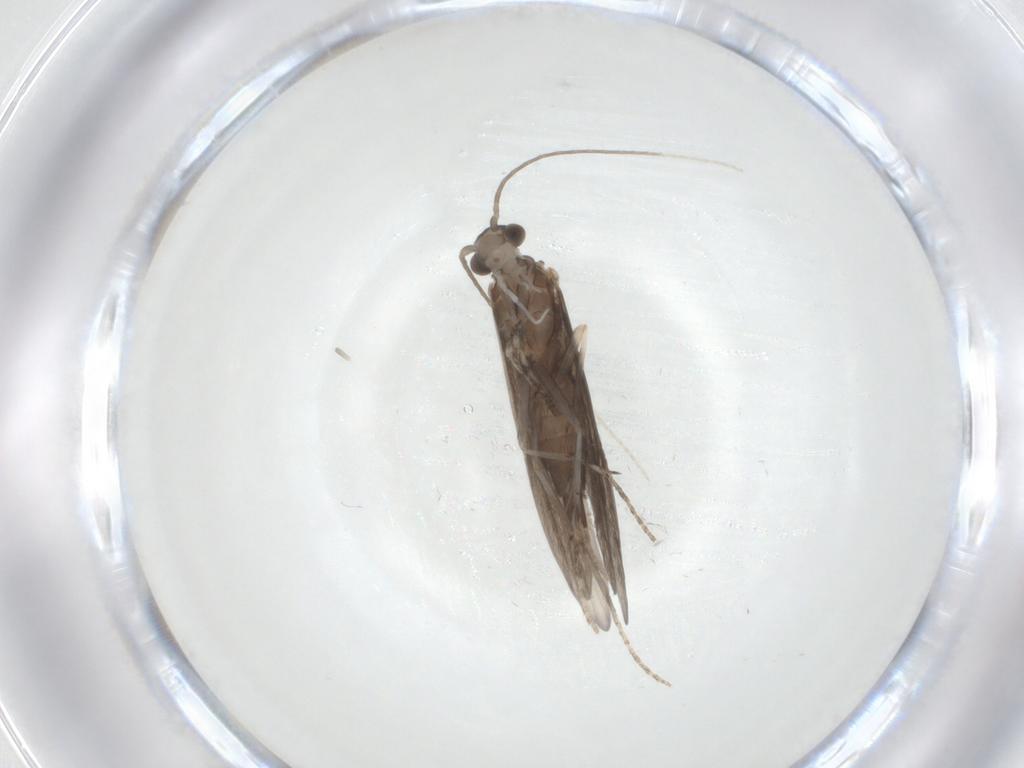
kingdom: Animalia
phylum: Arthropoda
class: Insecta
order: Trichoptera
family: Xiphocentronidae
